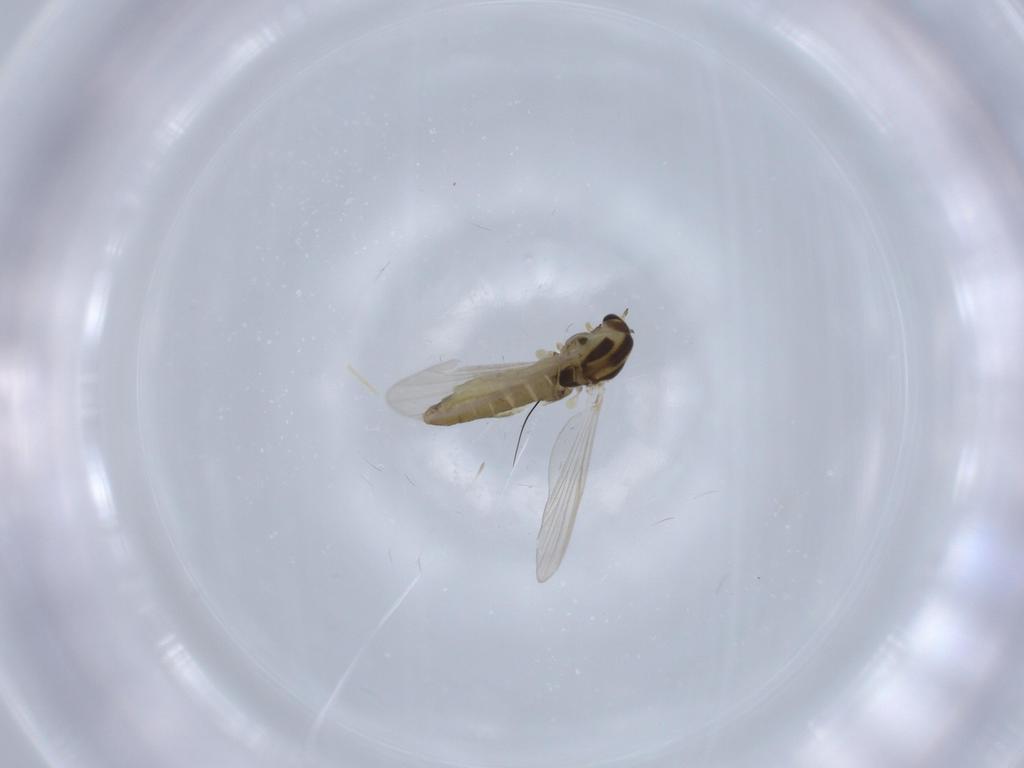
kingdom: Animalia
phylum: Arthropoda
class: Insecta
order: Diptera
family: Chironomidae
